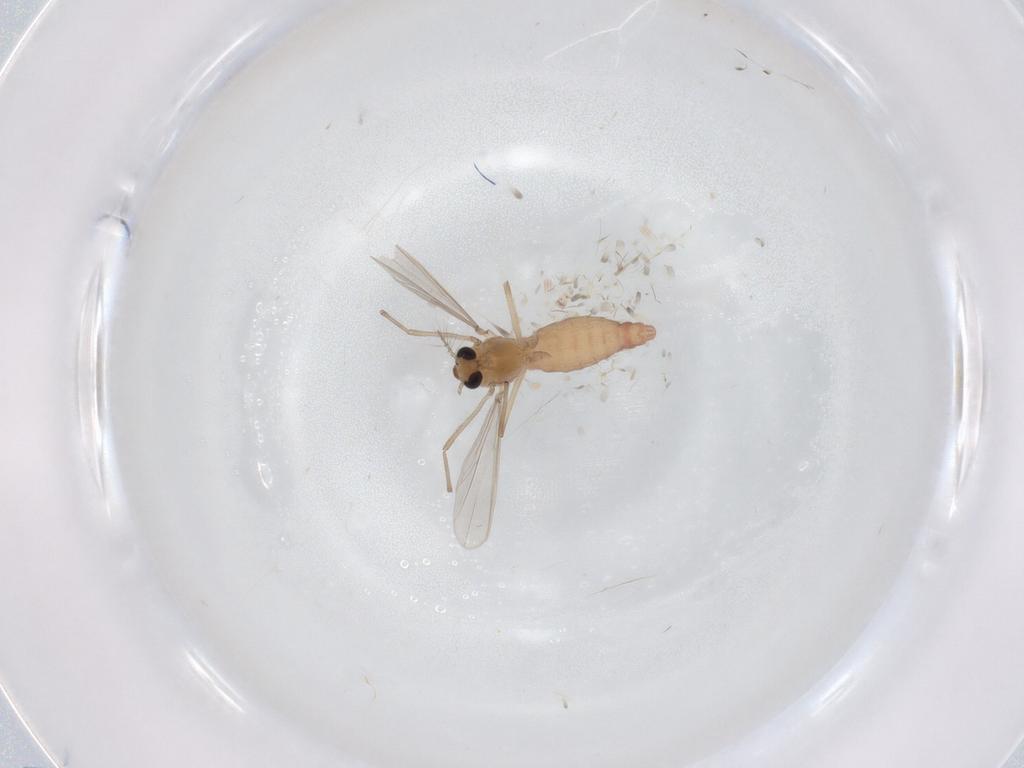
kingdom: Animalia
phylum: Arthropoda
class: Insecta
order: Diptera
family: Chironomidae
